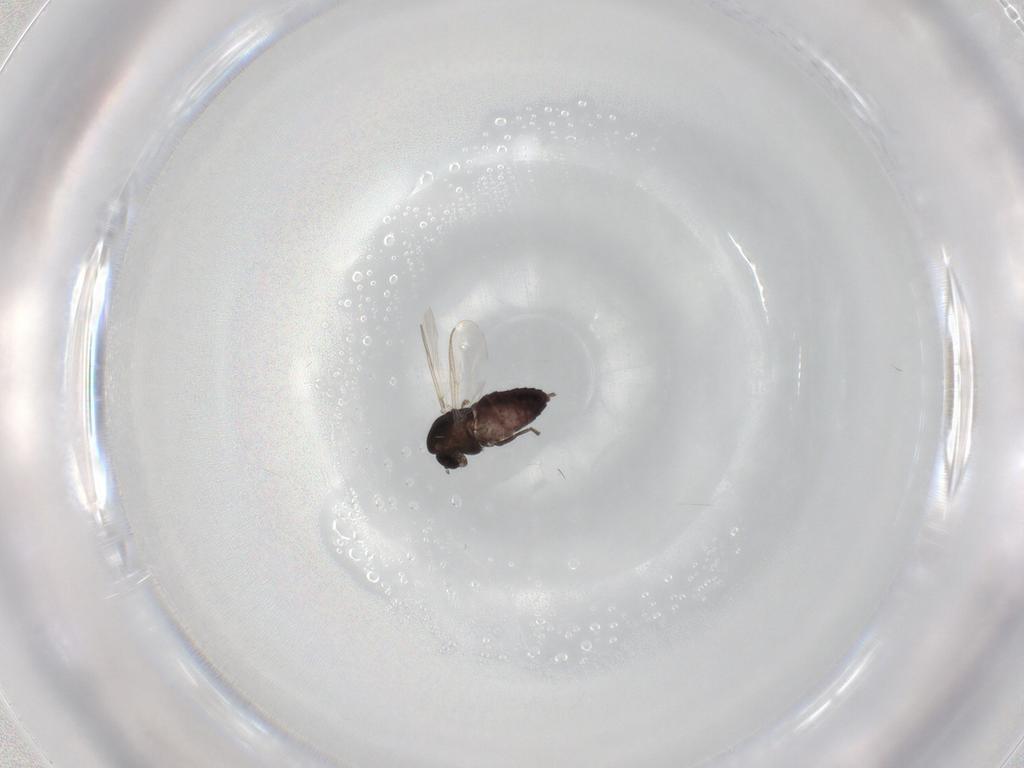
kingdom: Animalia
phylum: Arthropoda
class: Insecta
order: Diptera
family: Chironomidae
